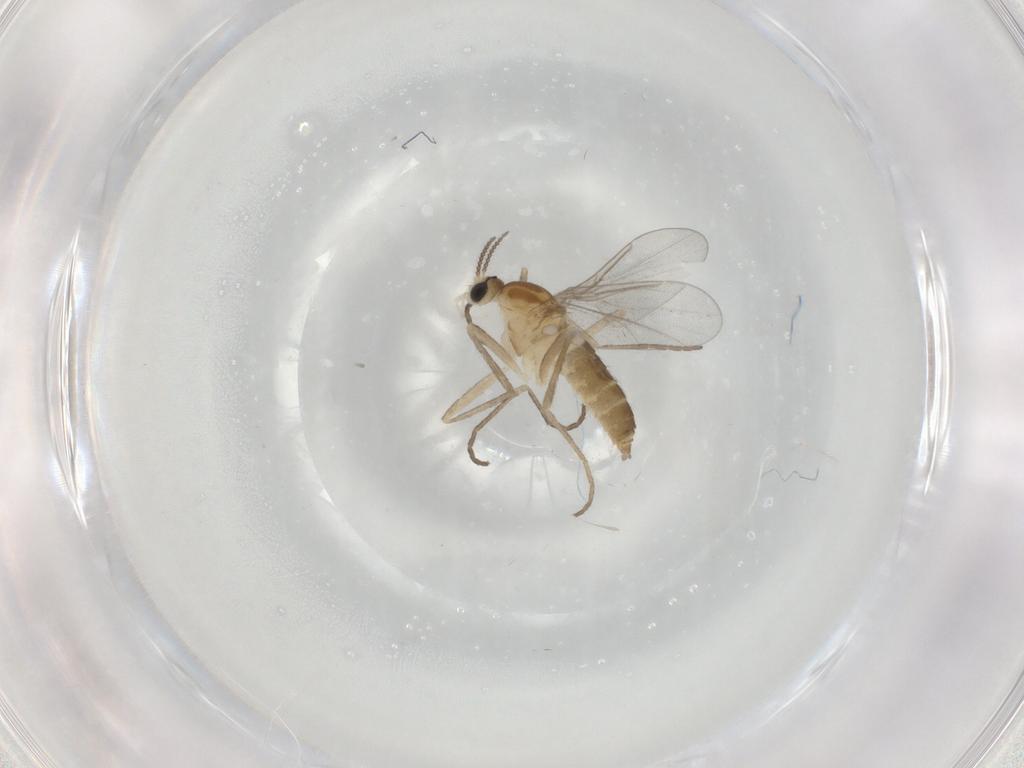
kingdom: Animalia
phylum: Arthropoda
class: Insecta
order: Diptera
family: Cecidomyiidae
